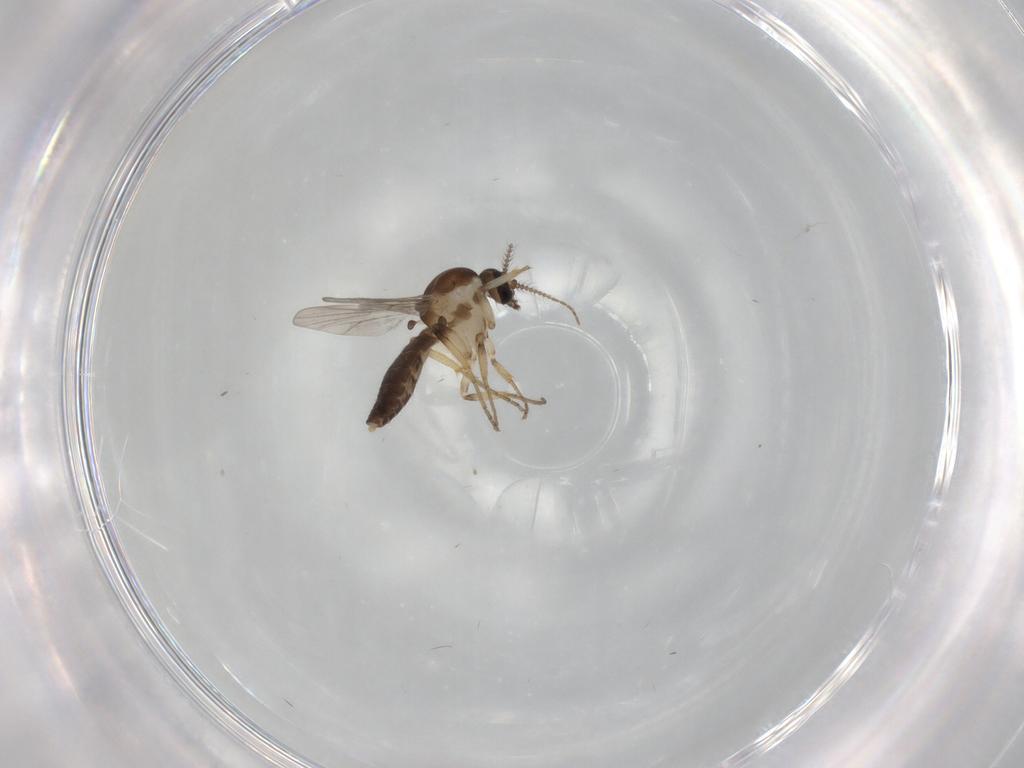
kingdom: Animalia
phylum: Arthropoda
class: Insecta
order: Diptera
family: Ceratopogonidae
